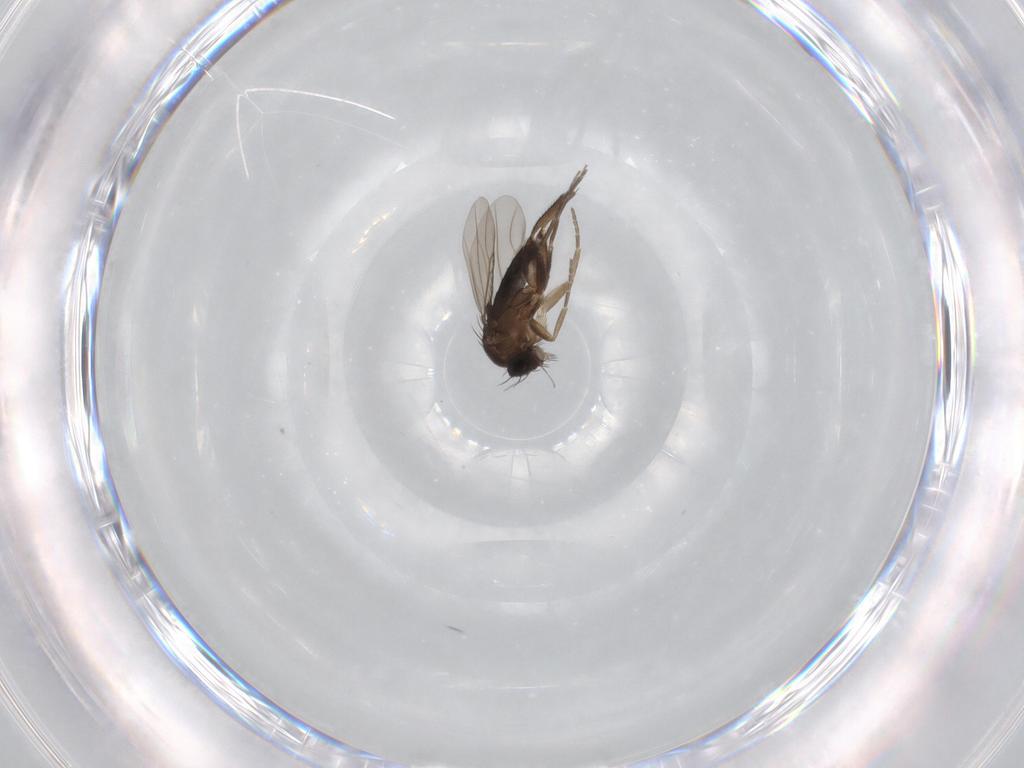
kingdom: Animalia
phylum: Arthropoda
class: Insecta
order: Diptera
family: Phoridae
